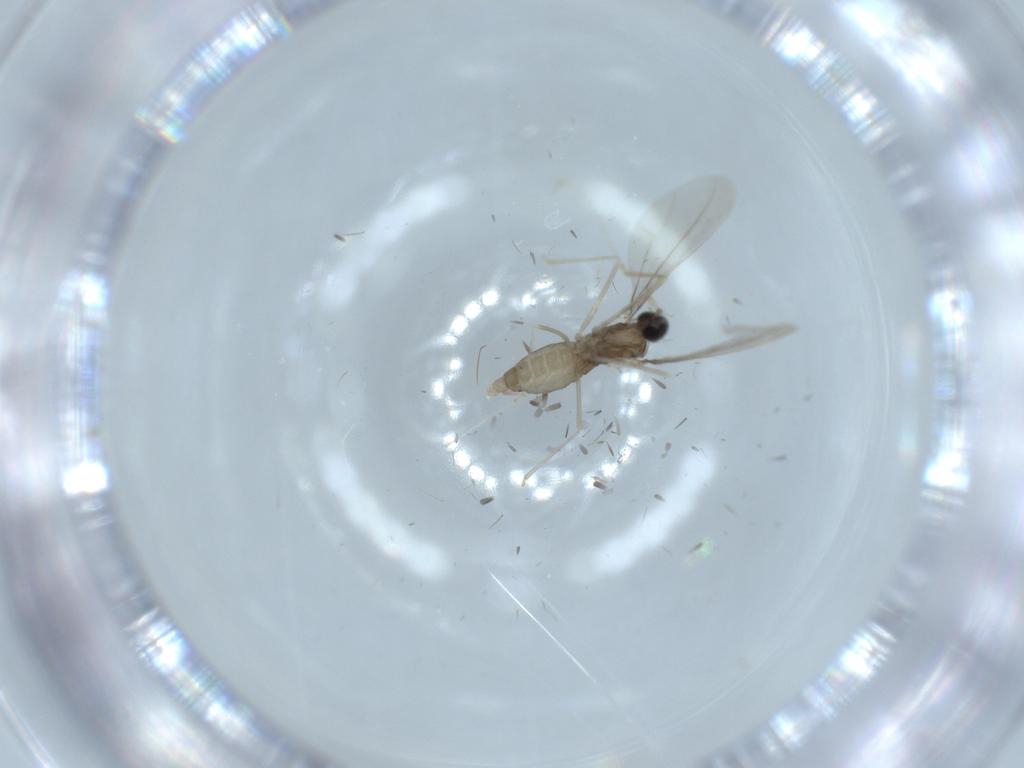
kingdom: Animalia
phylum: Arthropoda
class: Insecta
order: Diptera
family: Cecidomyiidae
